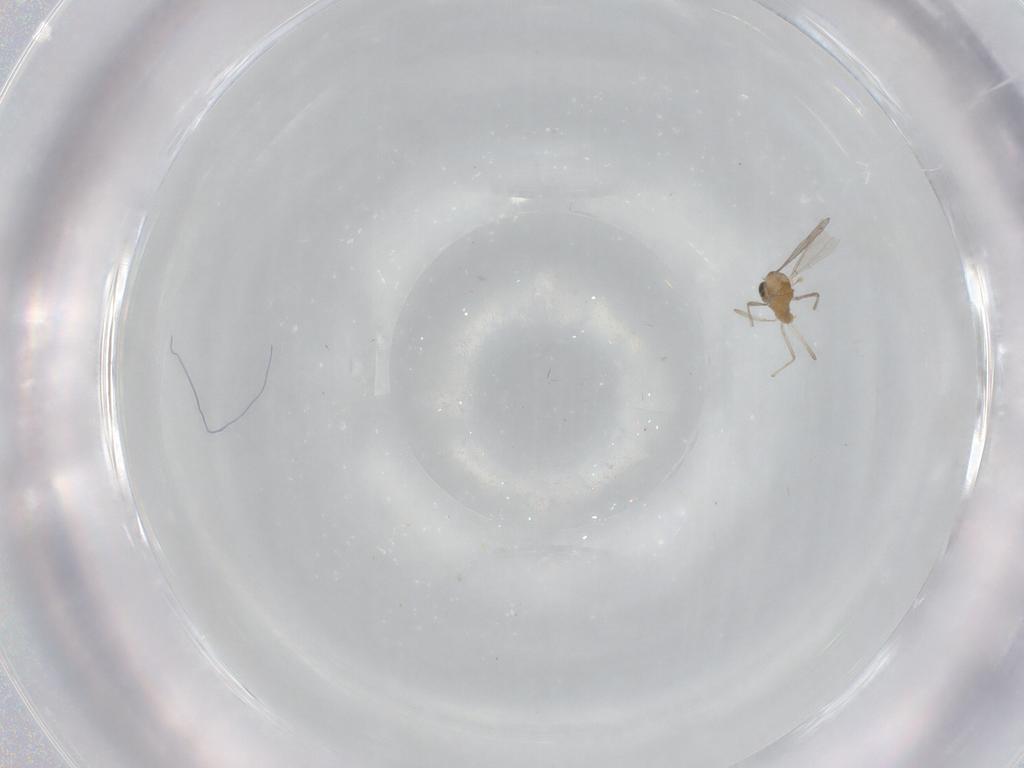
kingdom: Animalia
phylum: Arthropoda
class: Insecta
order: Diptera
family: Chironomidae
